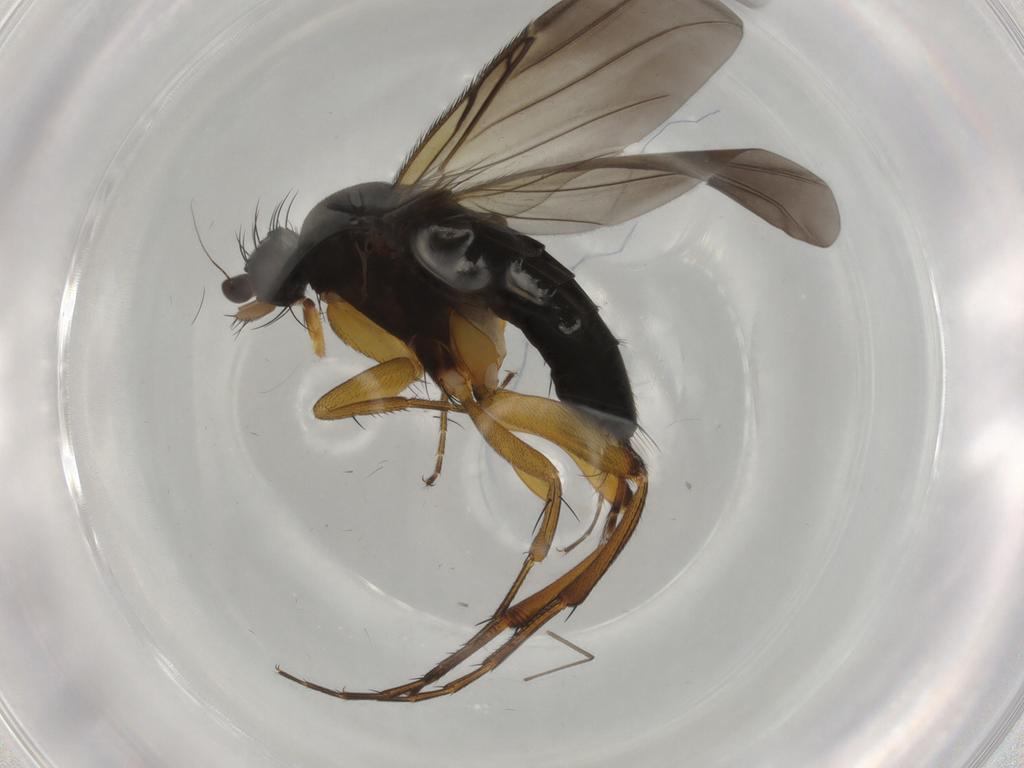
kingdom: Animalia
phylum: Arthropoda
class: Insecta
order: Diptera
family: Phoridae
